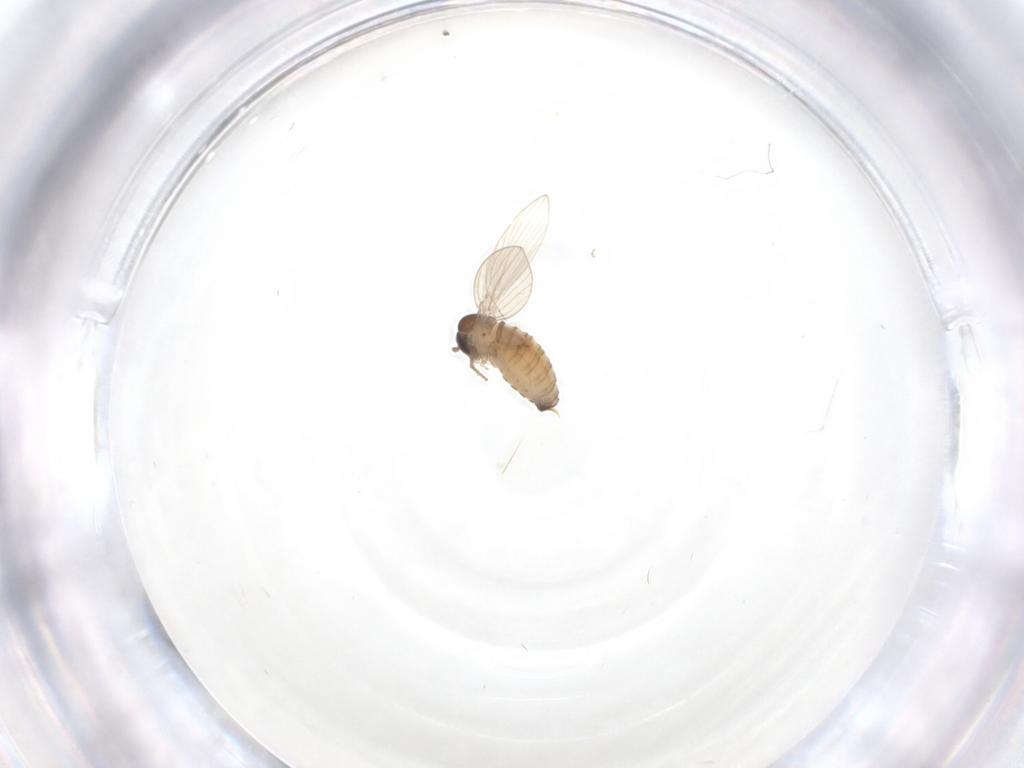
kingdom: Animalia
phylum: Arthropoda
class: Insecta
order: Diptera
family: Psychodidae
